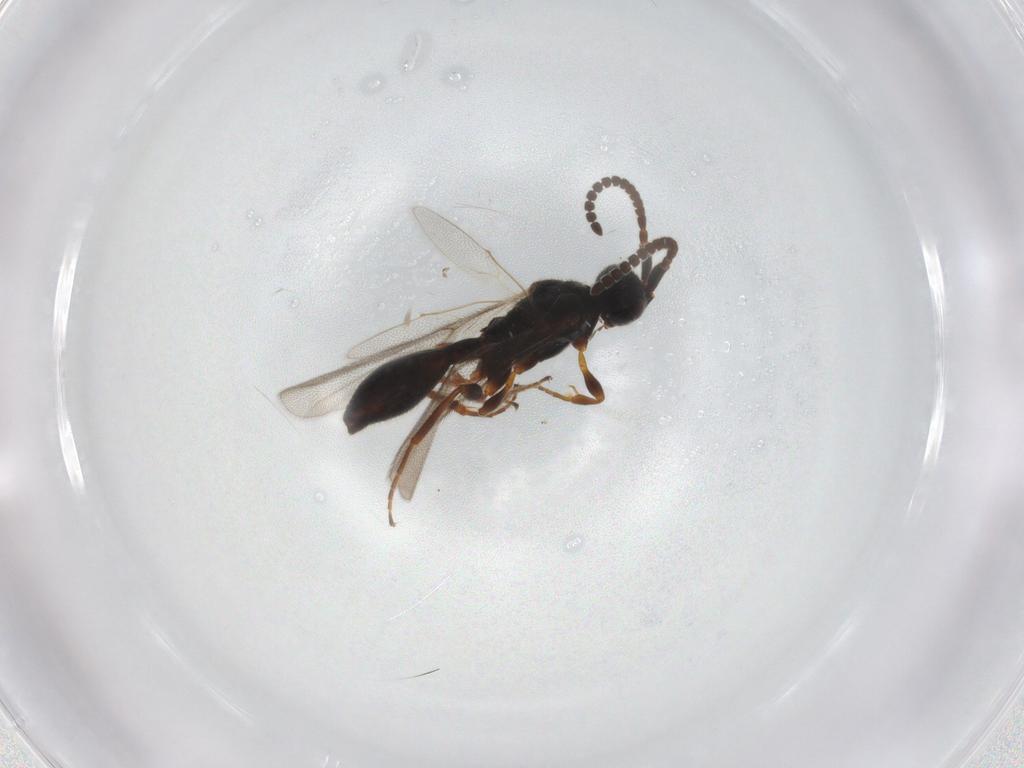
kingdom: Animalia
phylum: Arthropoda
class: Insecta
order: Hymenoptera
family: Diapriidae
